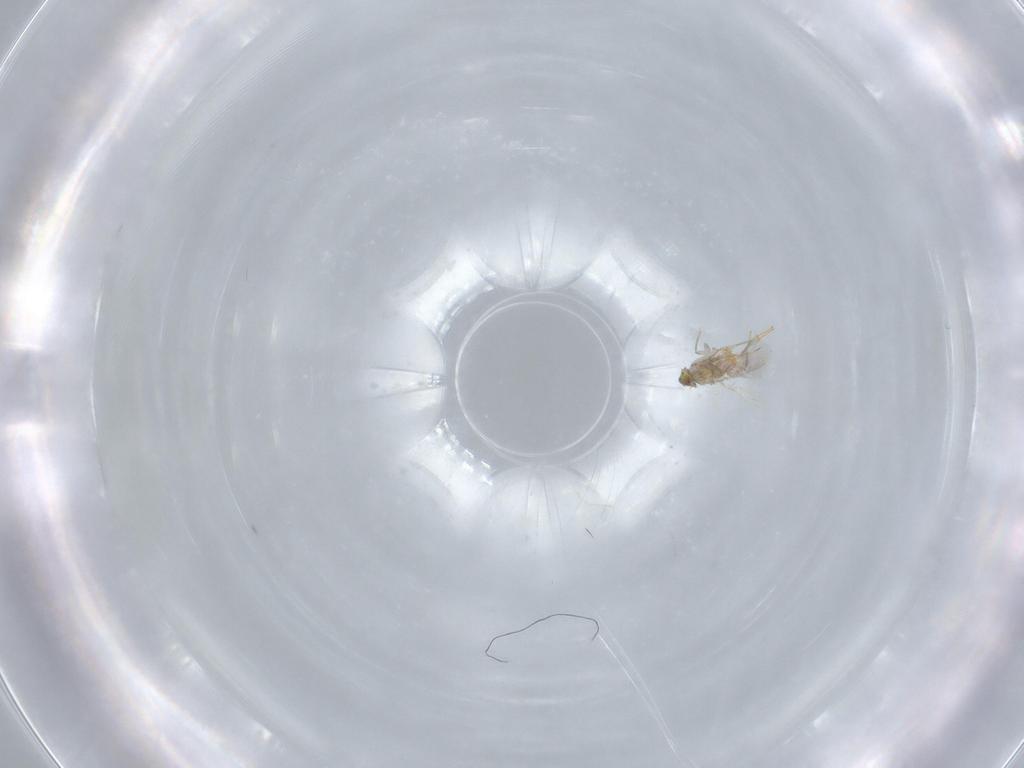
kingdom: Animalia
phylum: Arthropoda
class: Insecta
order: Hymenoptera
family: Aphelinidae
